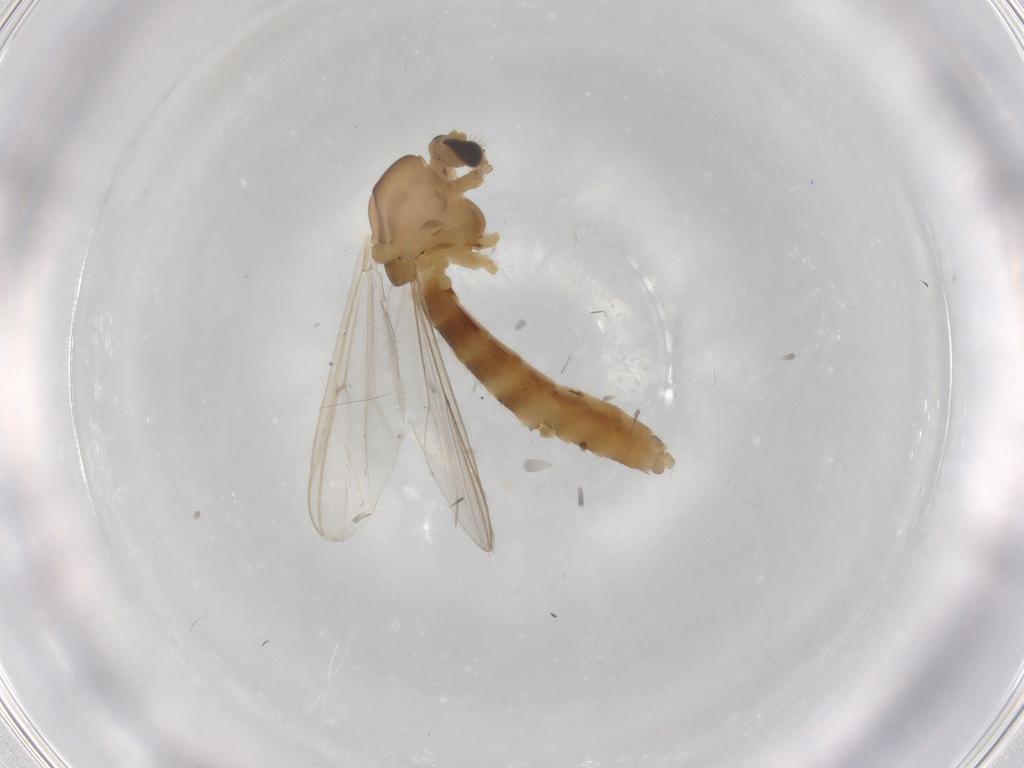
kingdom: Animalia
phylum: Arthropoda
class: Insecta
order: Diptera
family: Chironomidae
